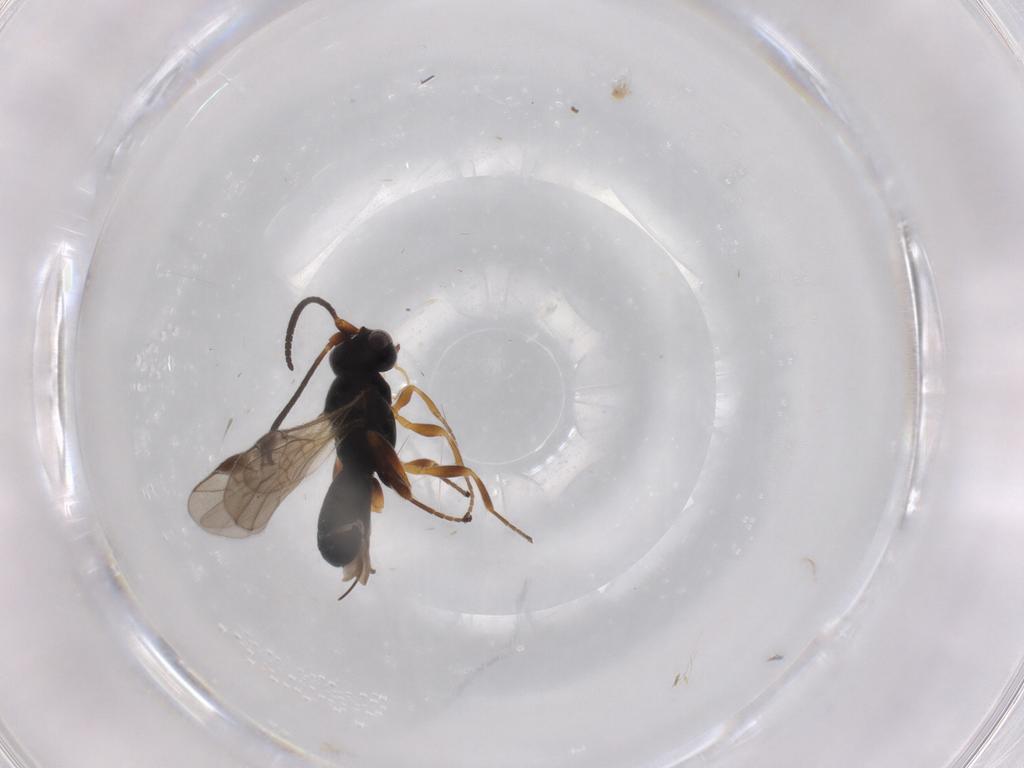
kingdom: Animalia
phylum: Arthropoda
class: Insecta
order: Hymenoptera
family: Braconidae
